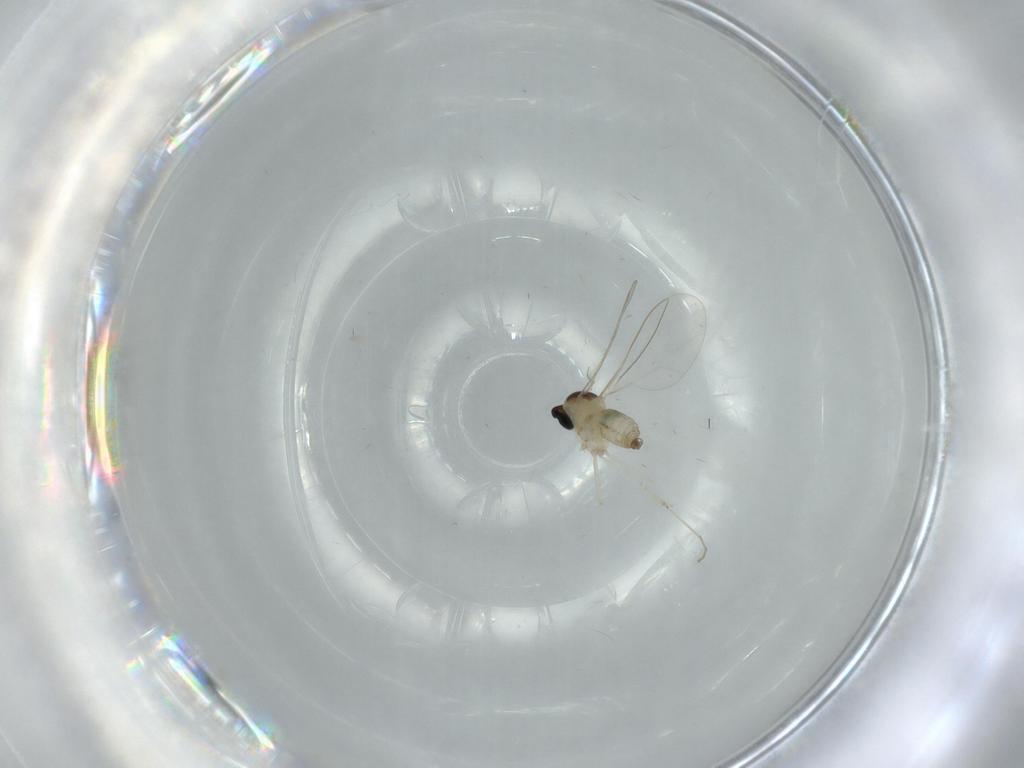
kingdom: Animalia
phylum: Arthropoda
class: Insecta
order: Diptera
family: Cecidomyiidae
